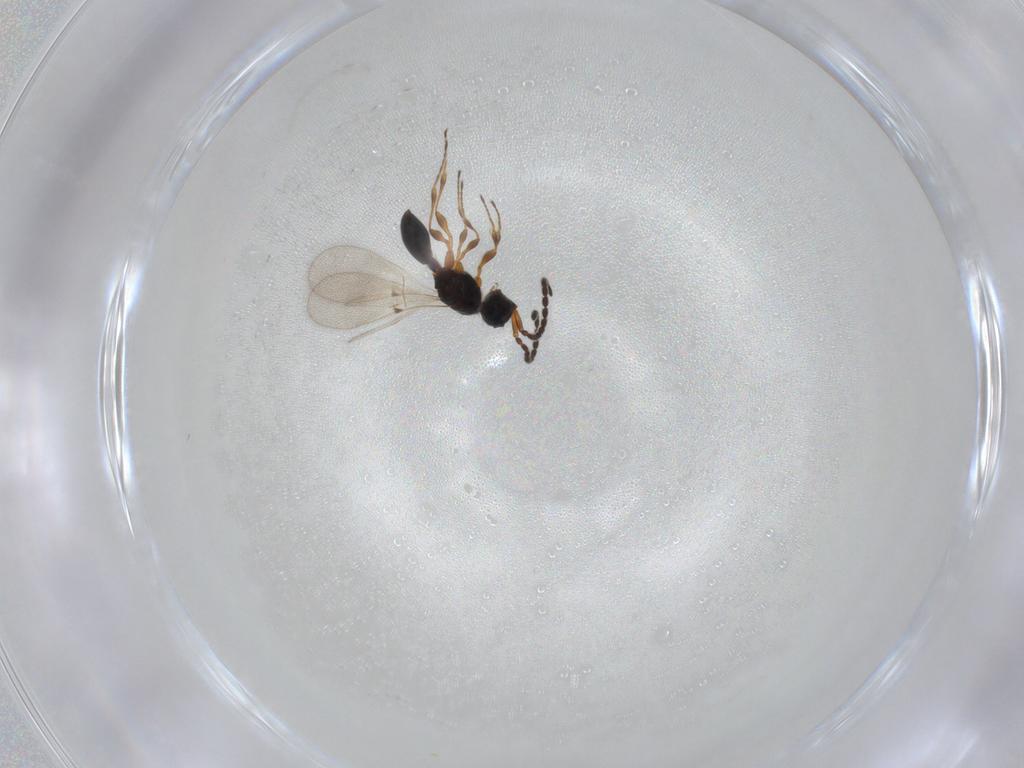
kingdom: Animalia
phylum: Arthropoda
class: Insecta
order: Hymenoptera
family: Diapriidae
